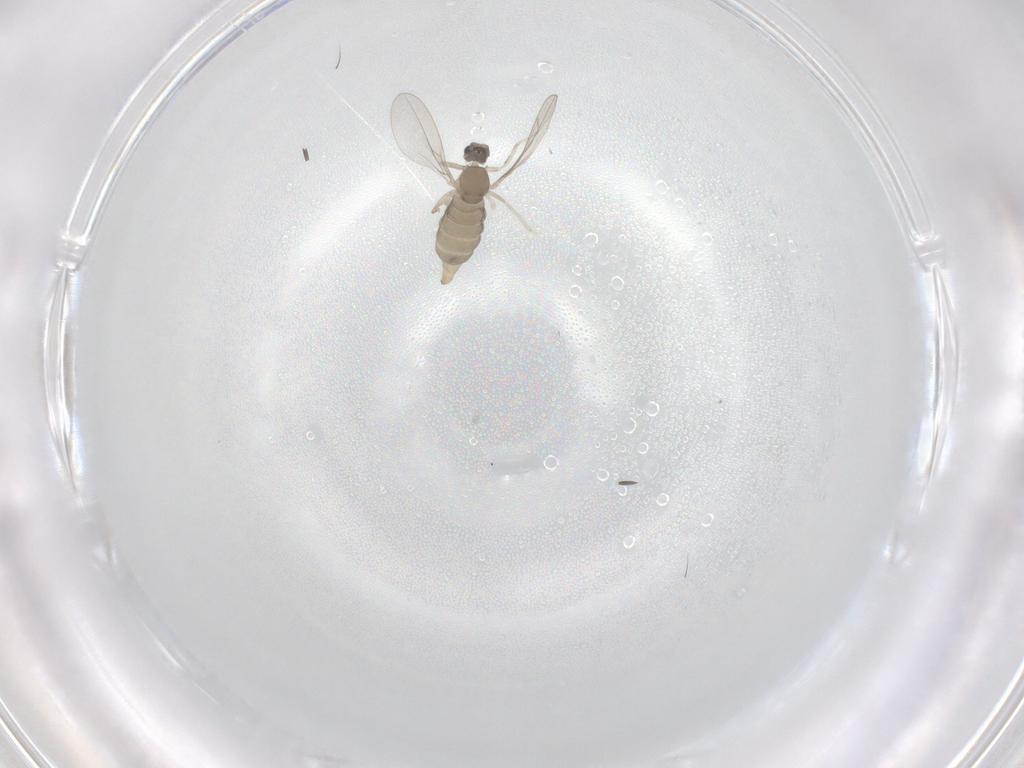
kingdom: Animalia
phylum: Arthropoda
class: Insecta
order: Diptera
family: Cecidomyiidae
